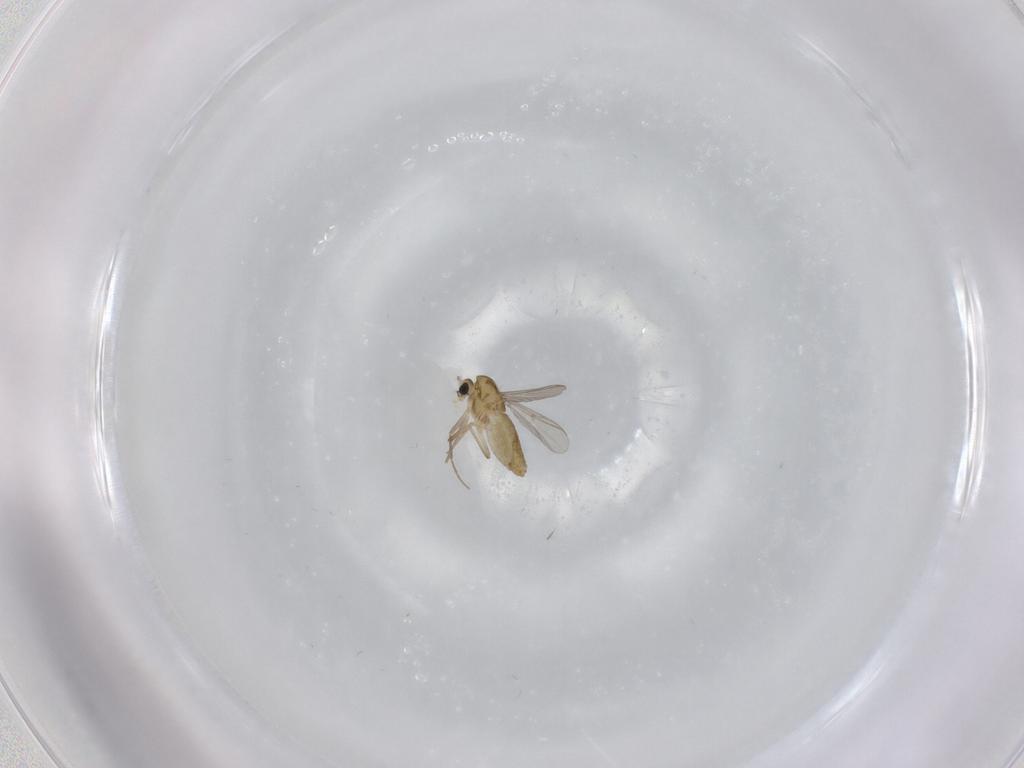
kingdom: Animalia
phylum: Arthropoda
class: Insecta
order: Diptera
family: Chironomidae
